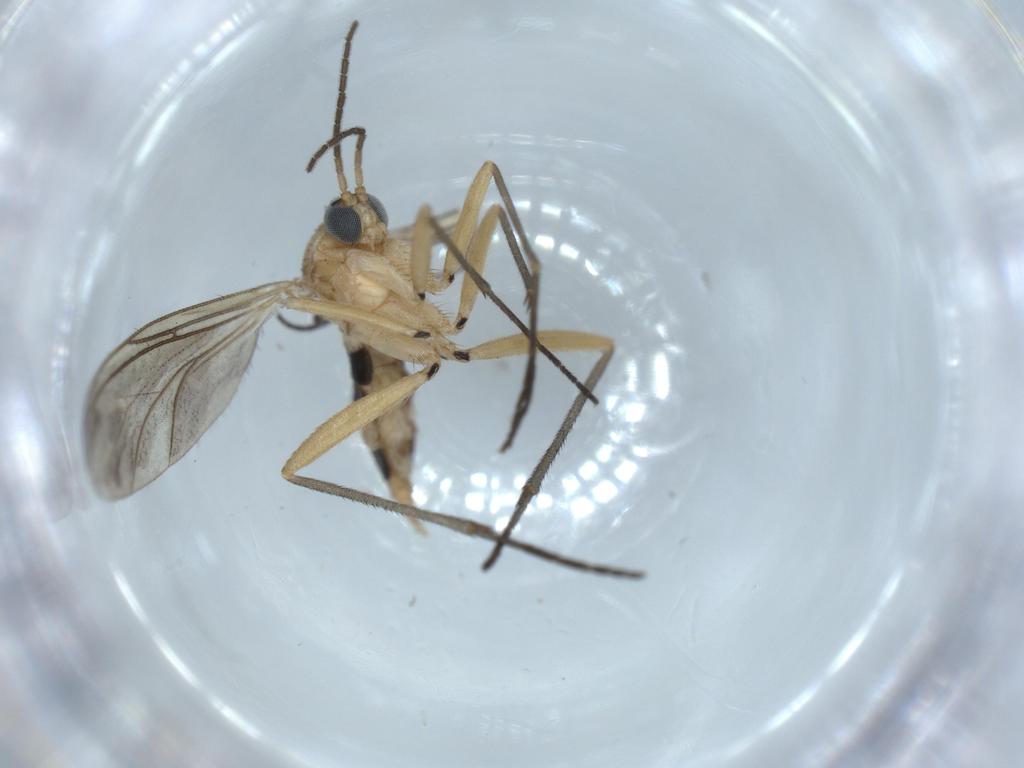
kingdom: Animalia
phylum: Arthropoda
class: Insecta
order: Diptera
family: Sciaridae
